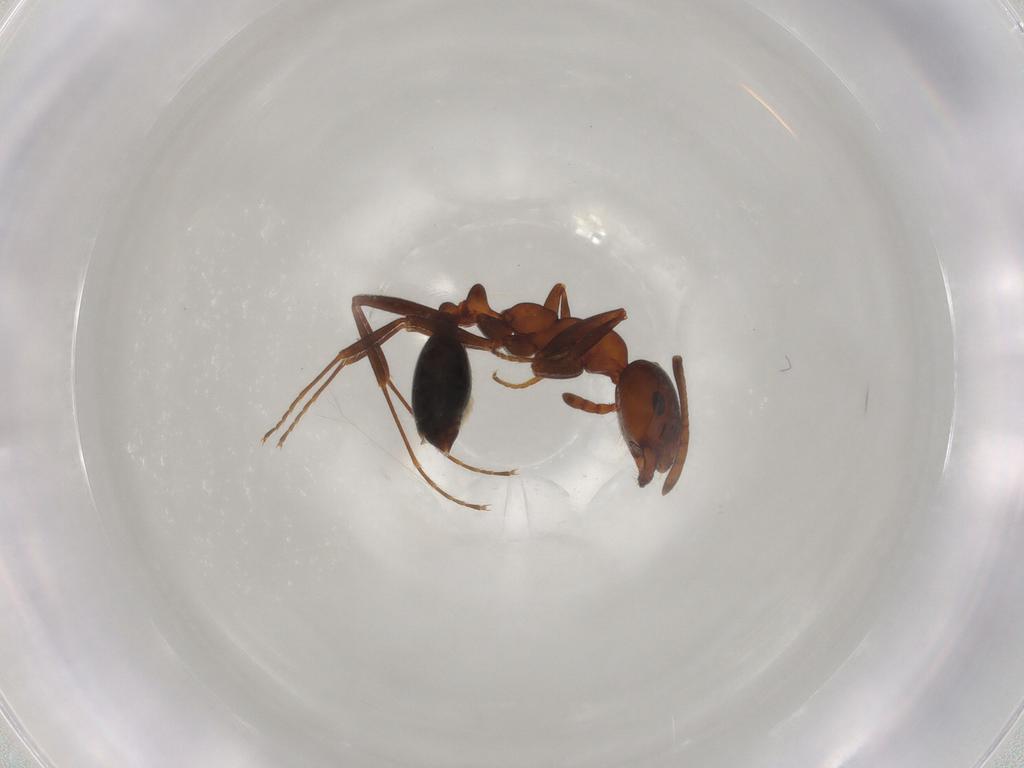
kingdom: Animalia
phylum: Arthropoda
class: Insecta
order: Hymenoptera
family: Formicidae
